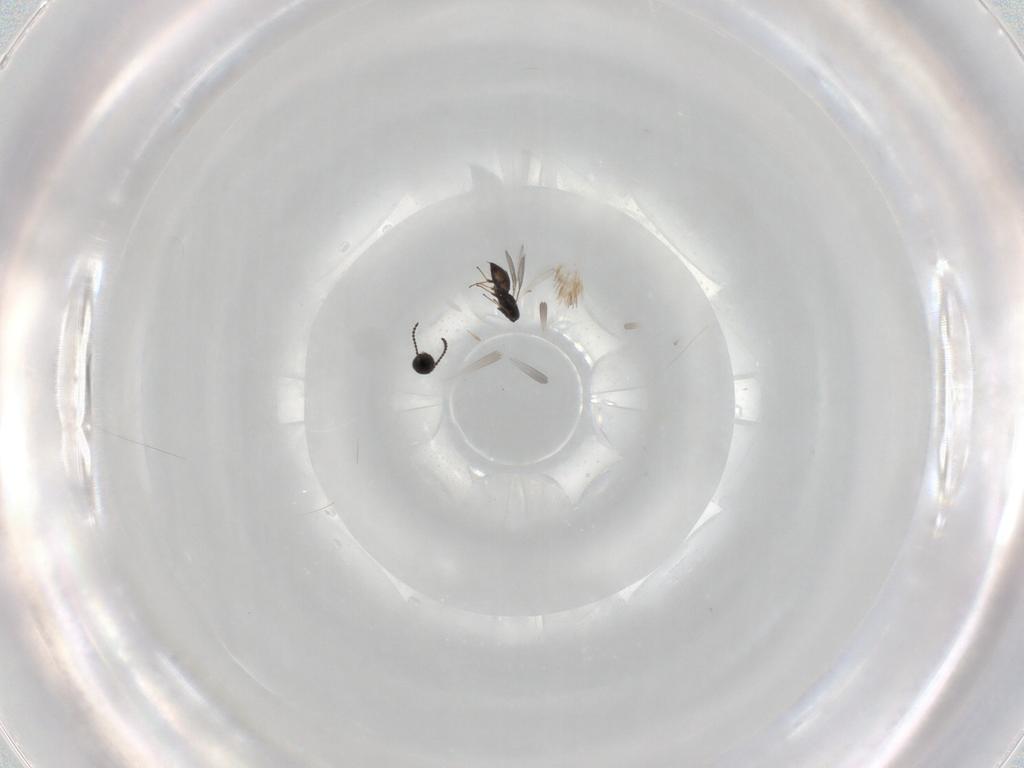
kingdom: Animalia
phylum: Arthropoda
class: Insecta
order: Hymenoptera
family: Scelionidae
